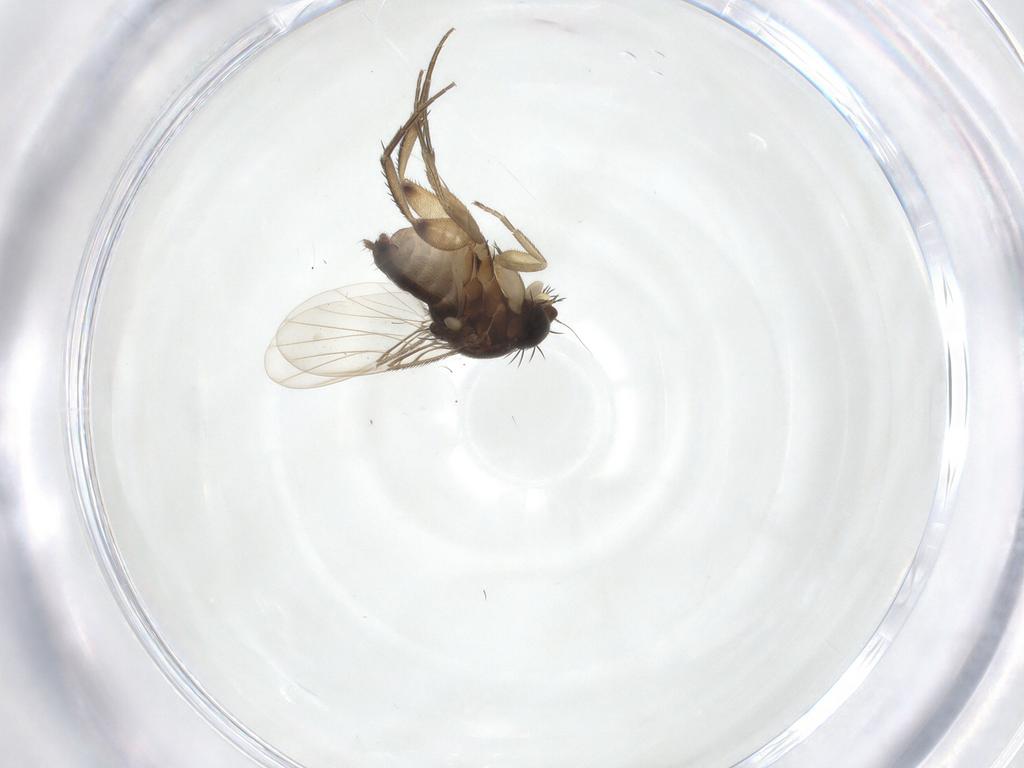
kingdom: Animalia
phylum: Arthropoda
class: Insecta
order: Diptera
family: Phoridae
